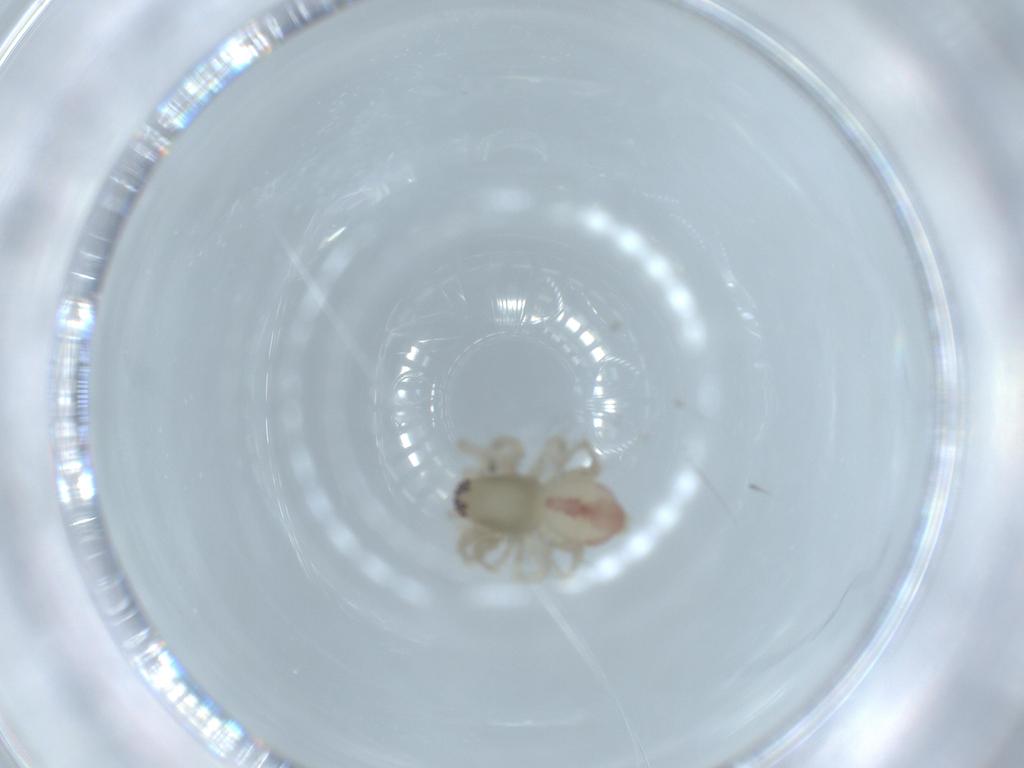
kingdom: Animalia
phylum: Arthropoda
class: Arachnida
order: Araneae
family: Clubionidae
